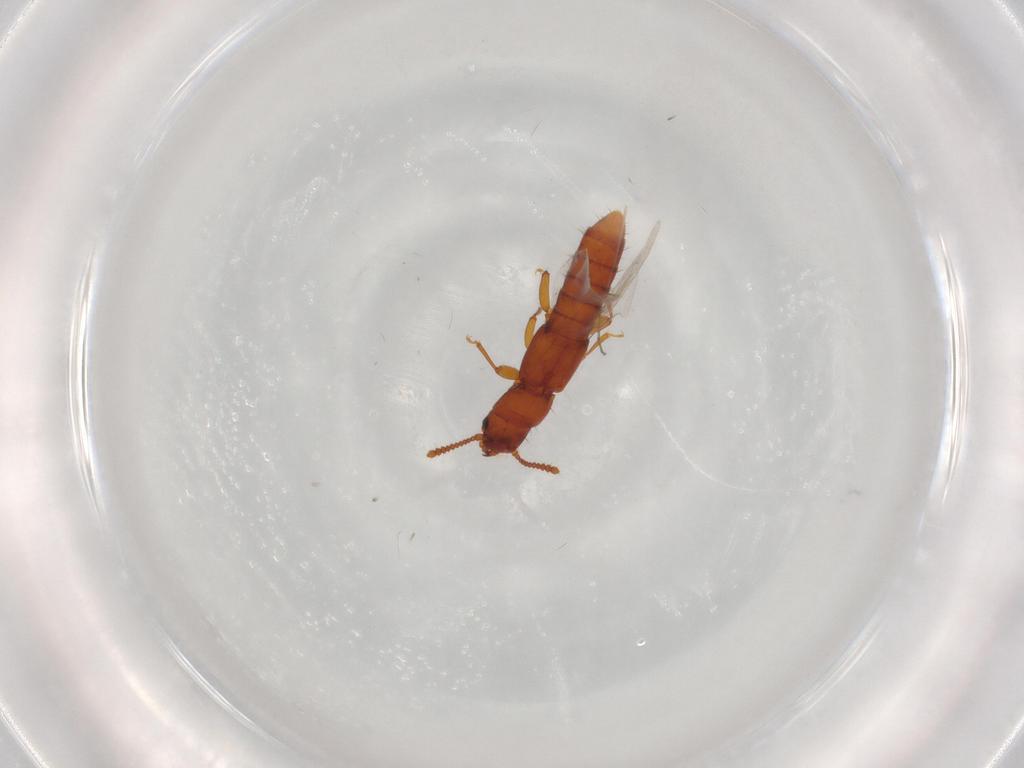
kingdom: Animalia
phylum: Arthropoda
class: Insecta
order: Coleoptera
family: Staphylinidae
